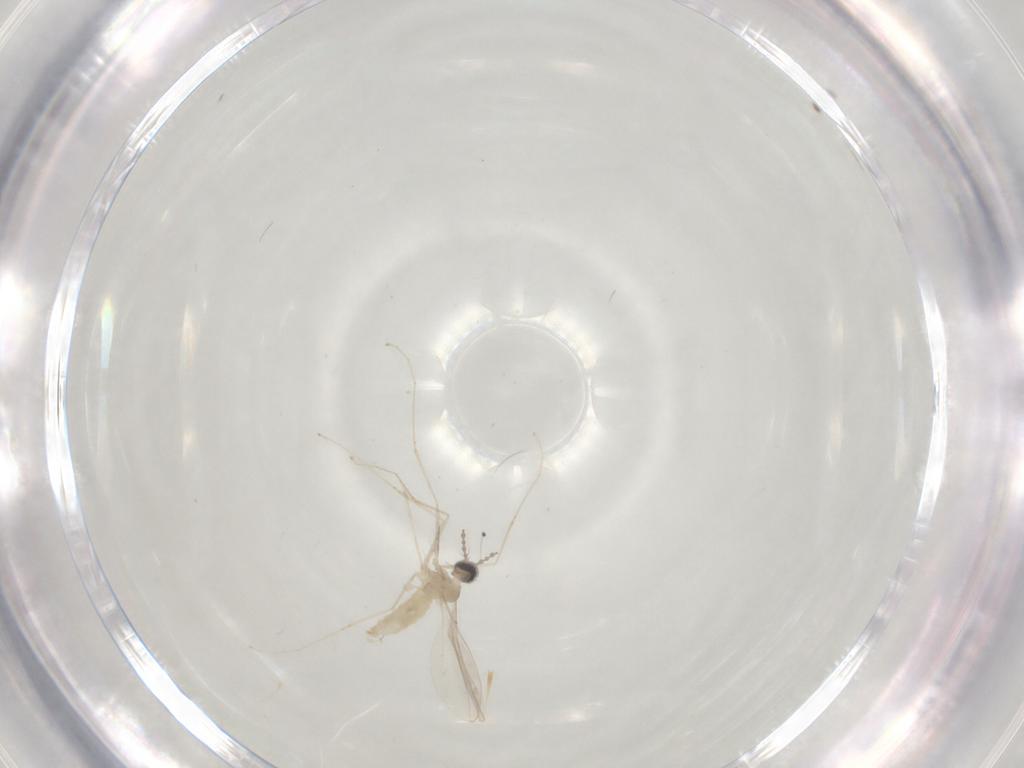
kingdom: Animalia
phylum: Arthropoda
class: Insecta
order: Diptera
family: Cecidomyiidae
